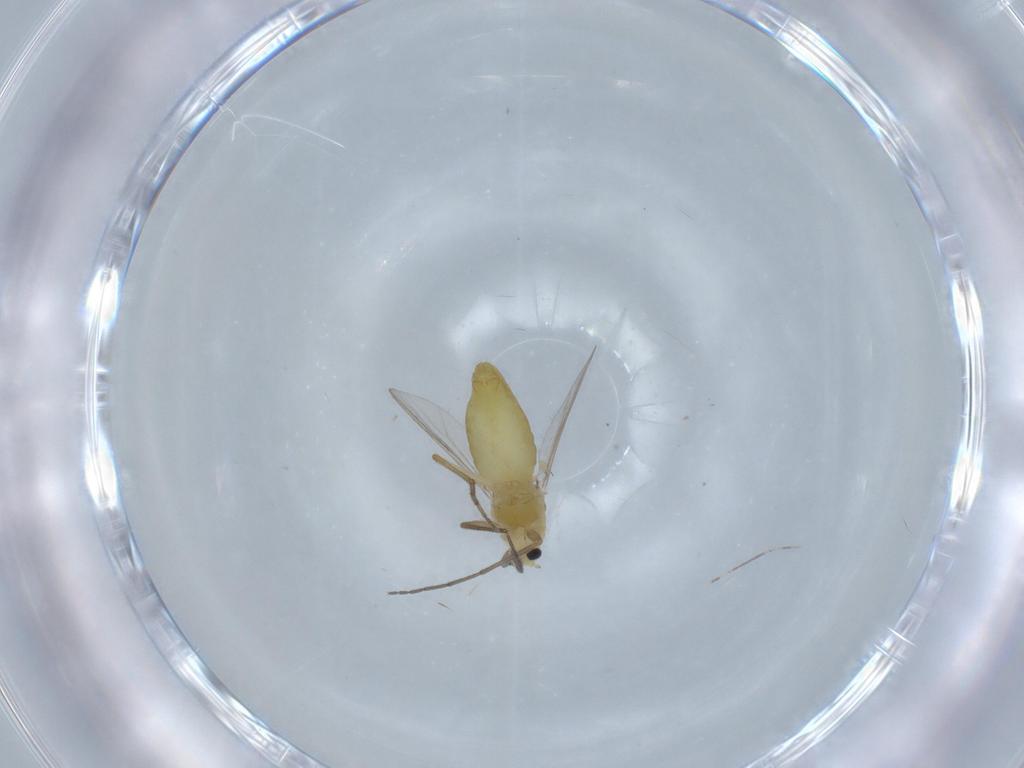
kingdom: Animalia
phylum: Arthropoda
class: Insecta
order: Diptera
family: Chironomidae
